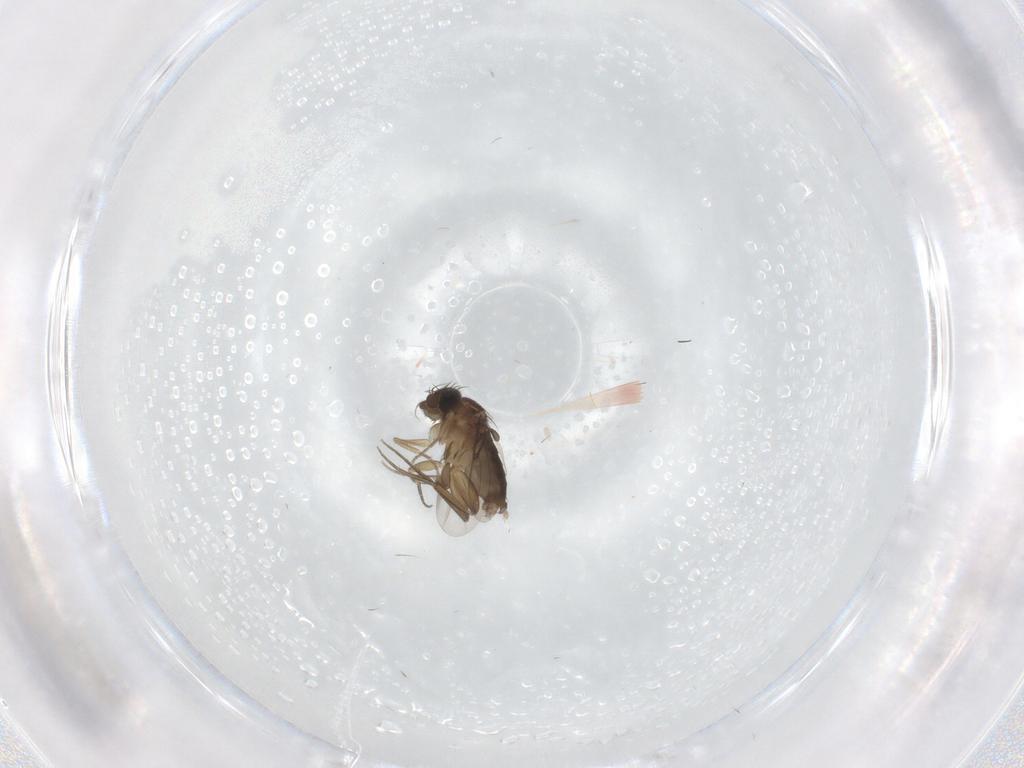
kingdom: Animalia
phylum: Arthropoda
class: Insecta
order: Diptera
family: Phoridae
